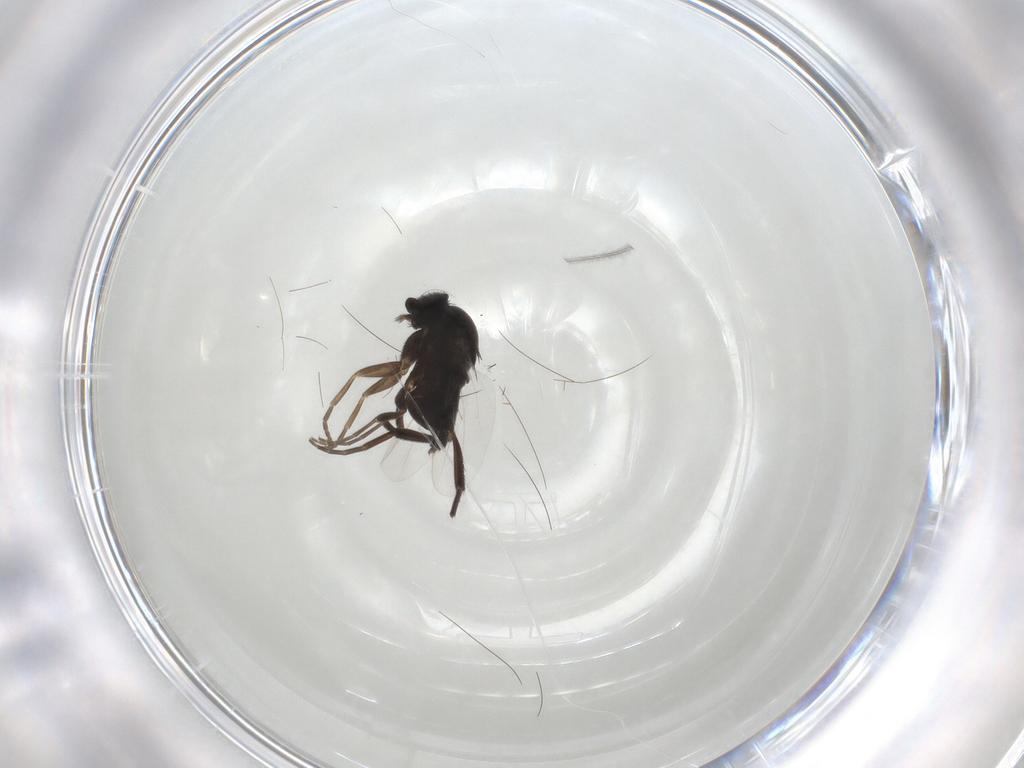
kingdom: Animalia
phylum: Arthropoda
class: Insecta
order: Diptera
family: Phoridae
